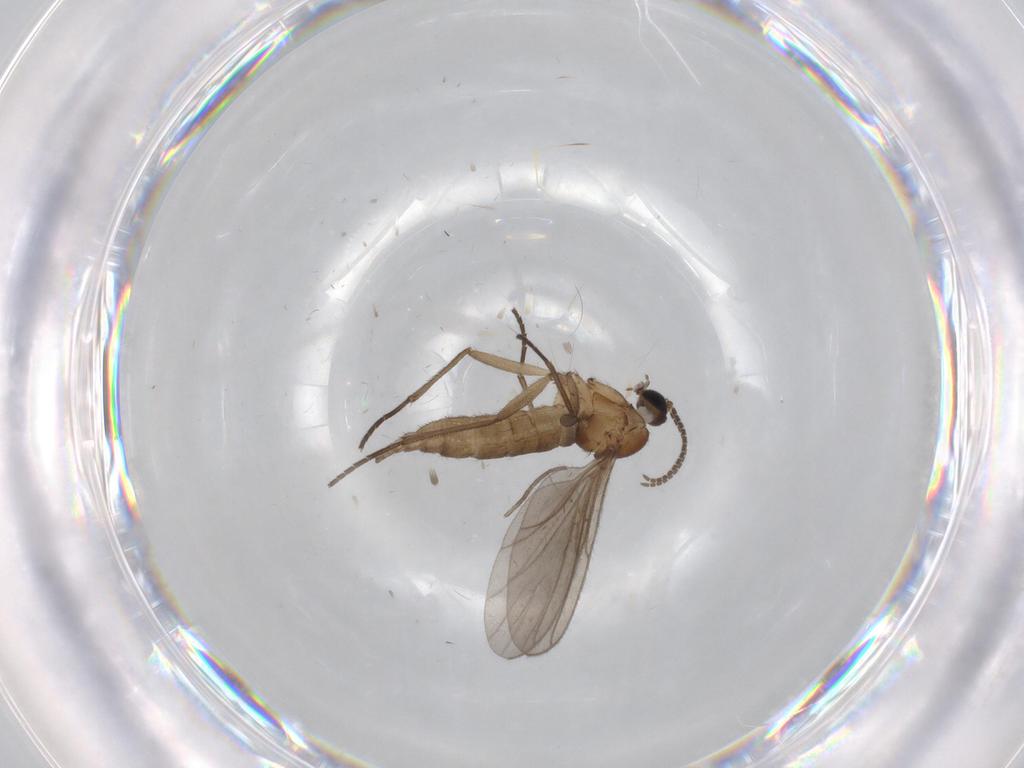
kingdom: Animalia
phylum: Arthropoda
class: Insecta
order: Diptera
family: Sciaridae
